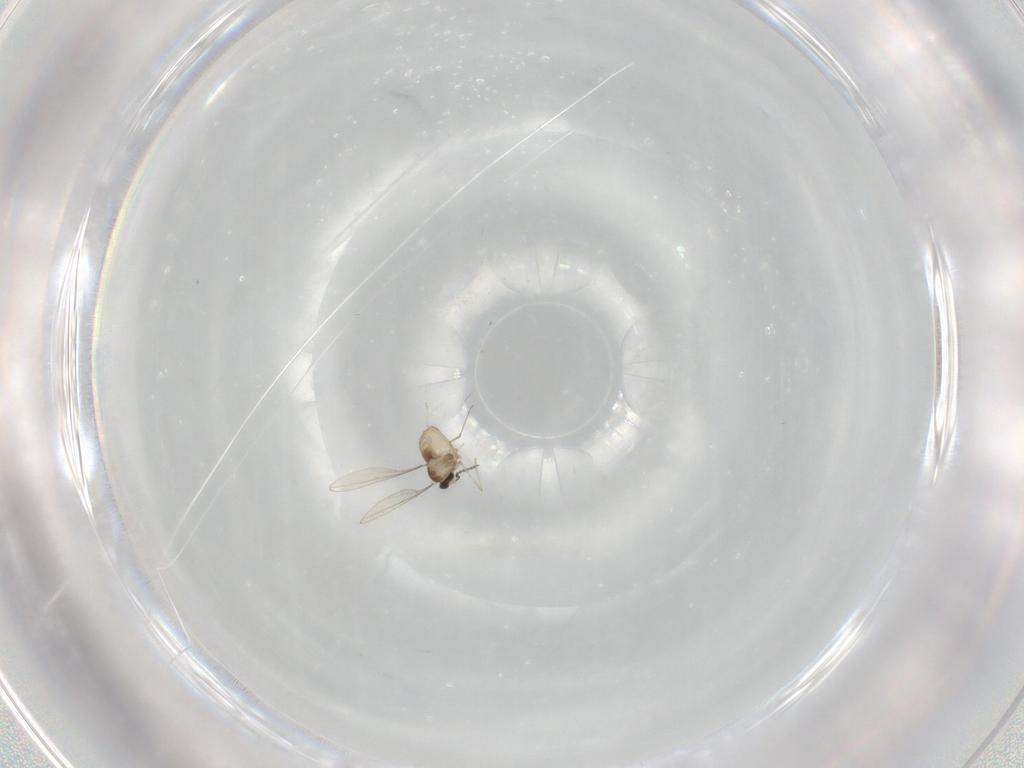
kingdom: Animalia
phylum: Arthropoda
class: Insecta
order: Diptera
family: Cecidomyiidae
